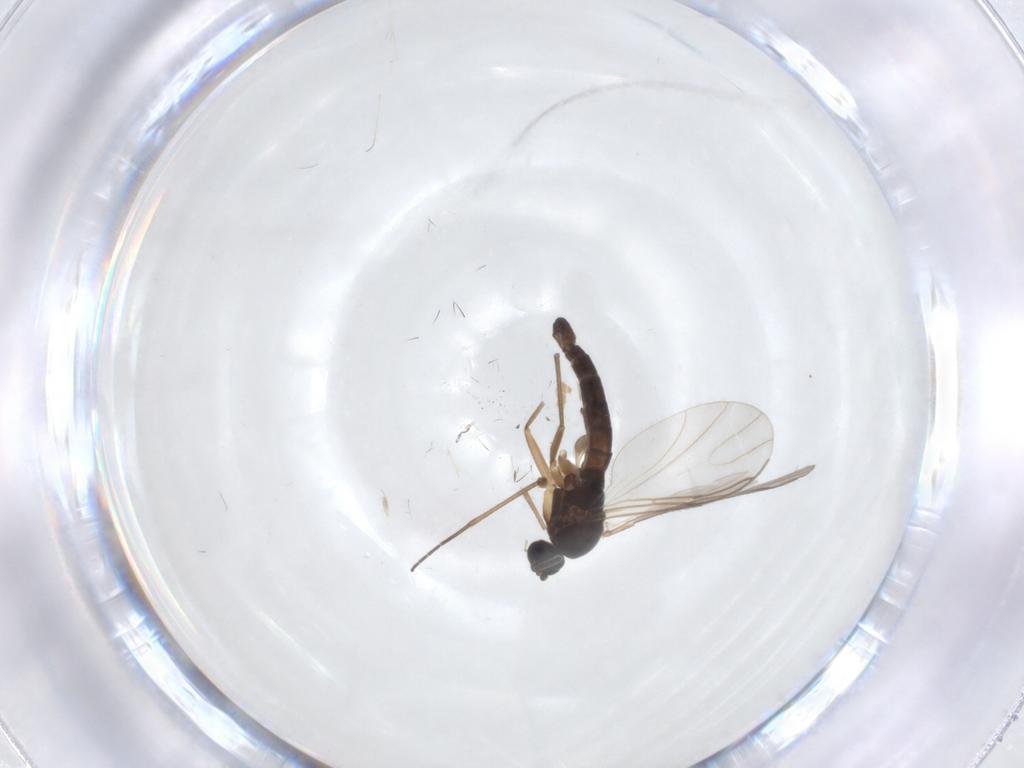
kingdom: Animalia
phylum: Arthropoda
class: Insecta
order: Diptera
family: Sciaridae
